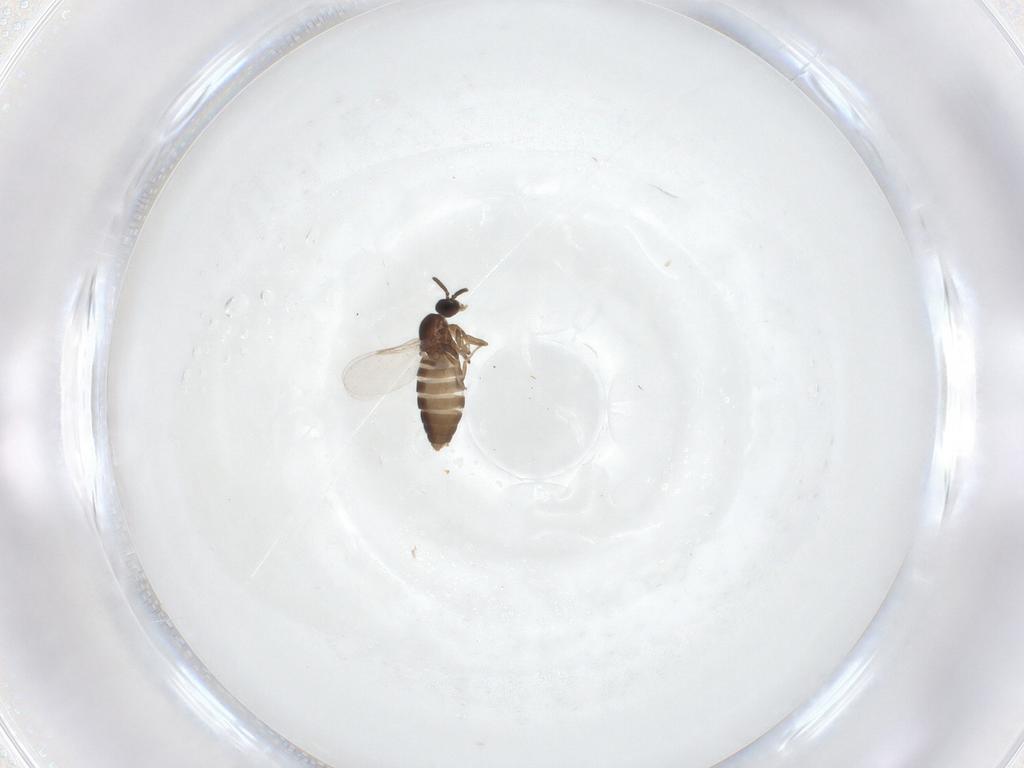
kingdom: Animalia
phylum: Arthropoda
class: Insecta
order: Diptera
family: Scatopsidae
